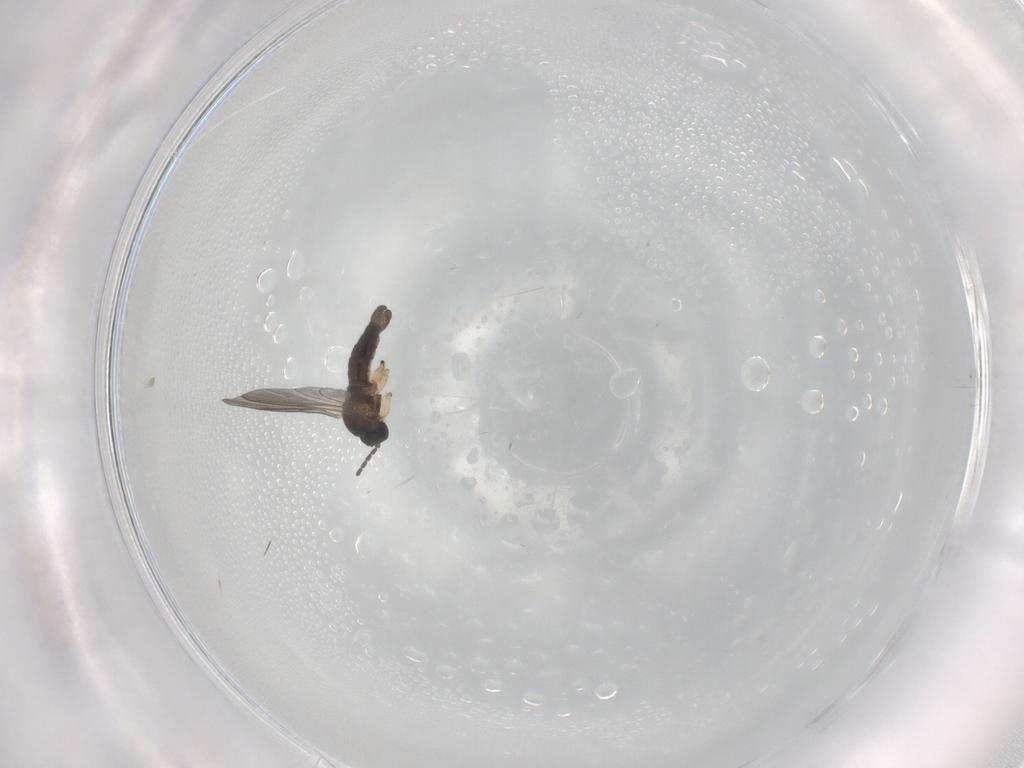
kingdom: Animalia
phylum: Arthropoda
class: Insecta
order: Diptera
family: Sciaridae
